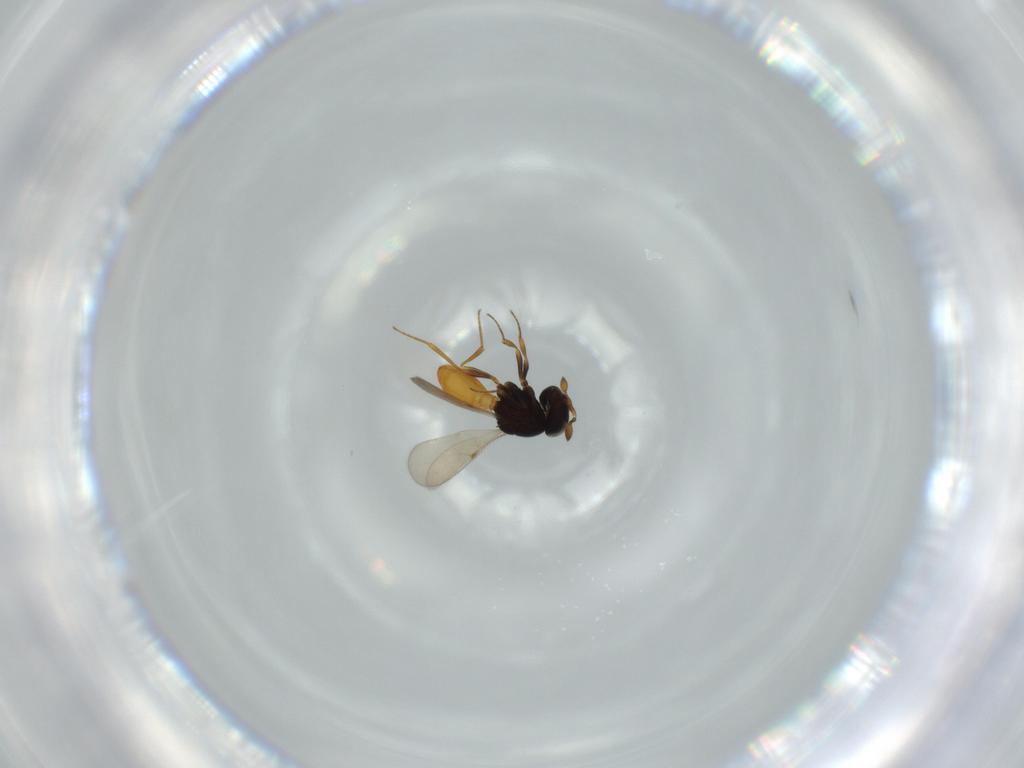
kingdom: Animalia
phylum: Arthropoda
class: Insecta
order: Hymenoptera
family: Scelionidae
